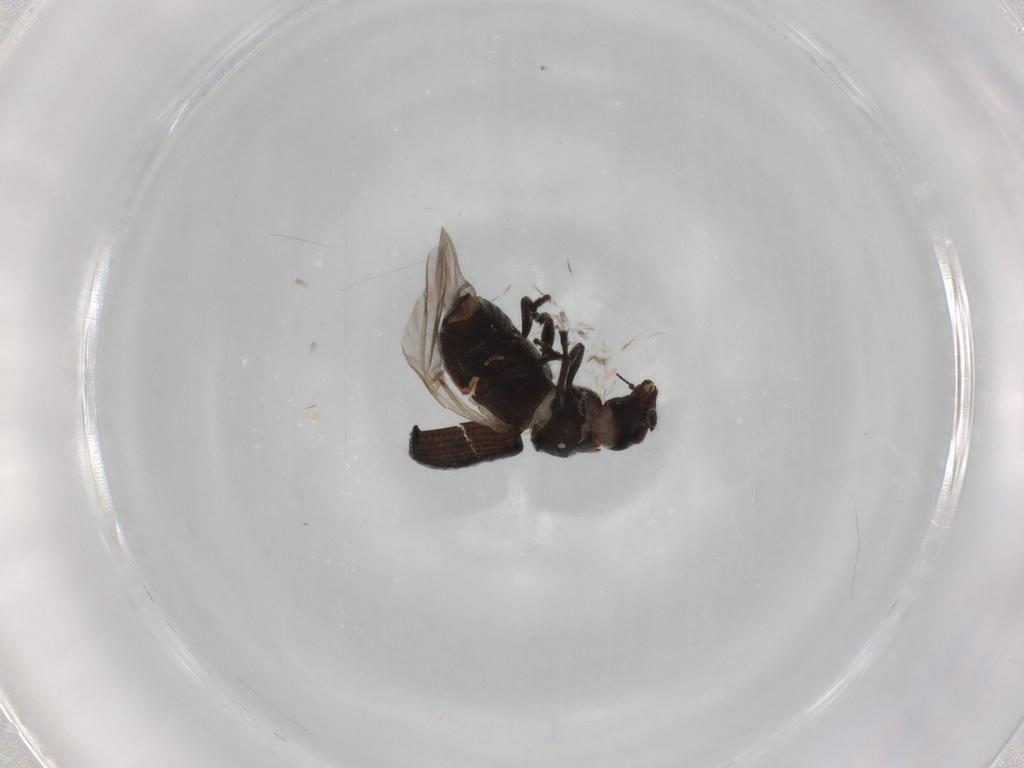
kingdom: Animalia
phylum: Arthropoda
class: Insecta
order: Coleoptera
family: Anthribidae
